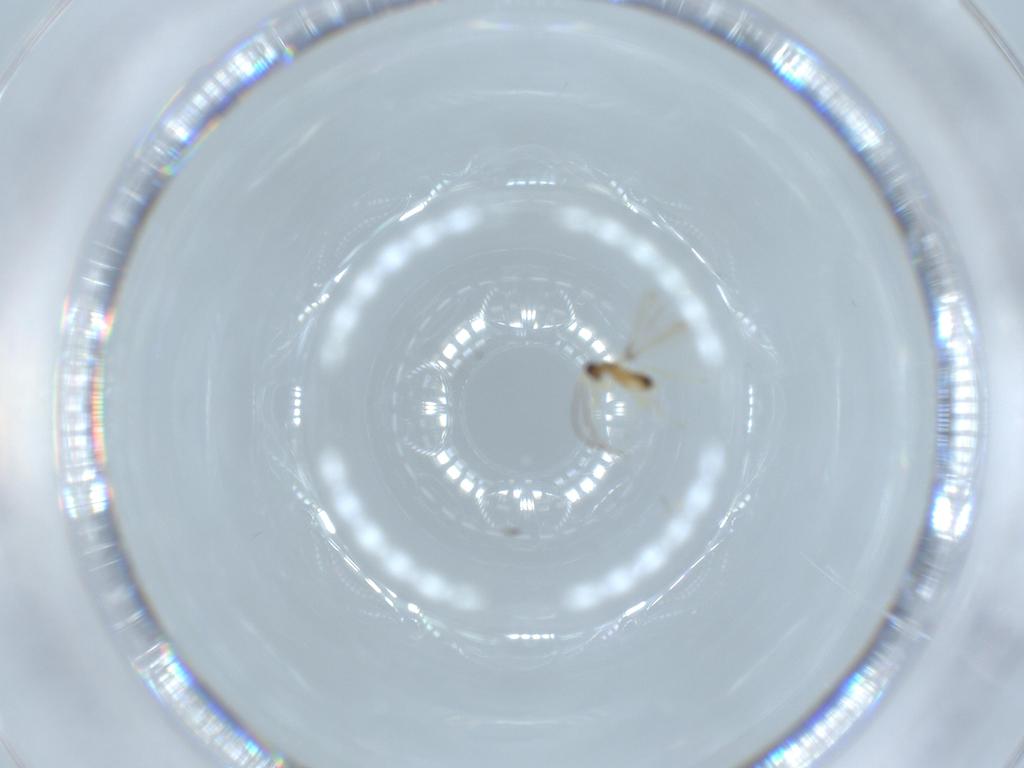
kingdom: Animalia
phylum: Arthropoda
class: Insecta
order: Hymenoptera
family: Mymaridae
